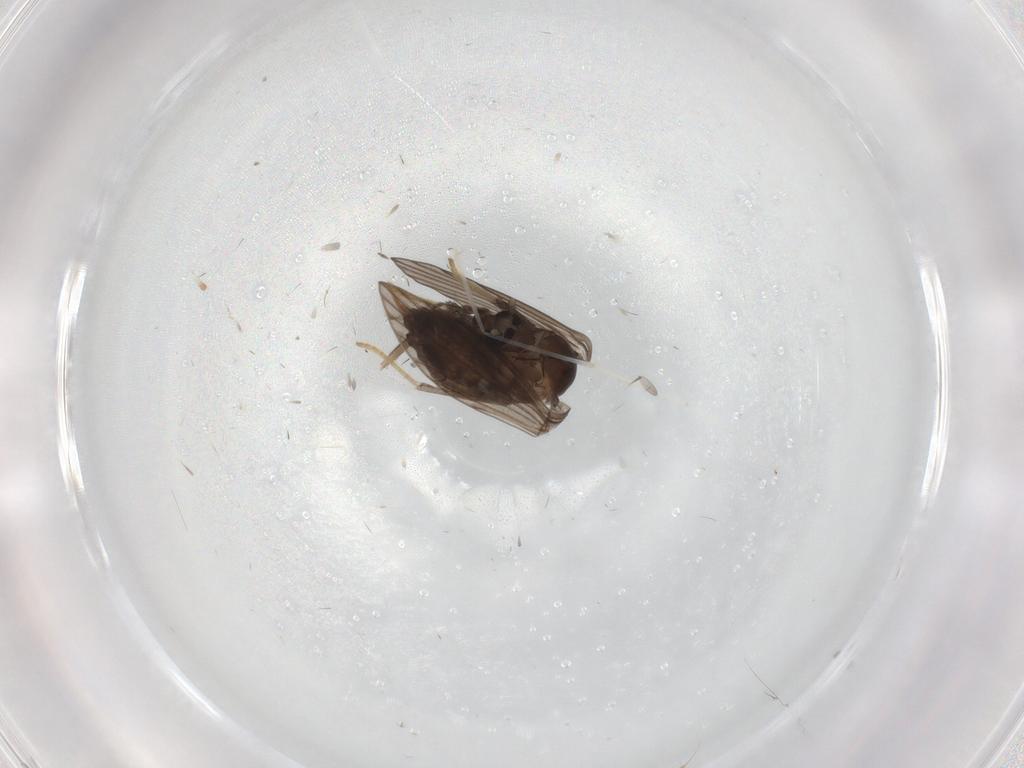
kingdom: Animalia
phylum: Arthropoda
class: Insecta
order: Diptera
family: Psychodidae
